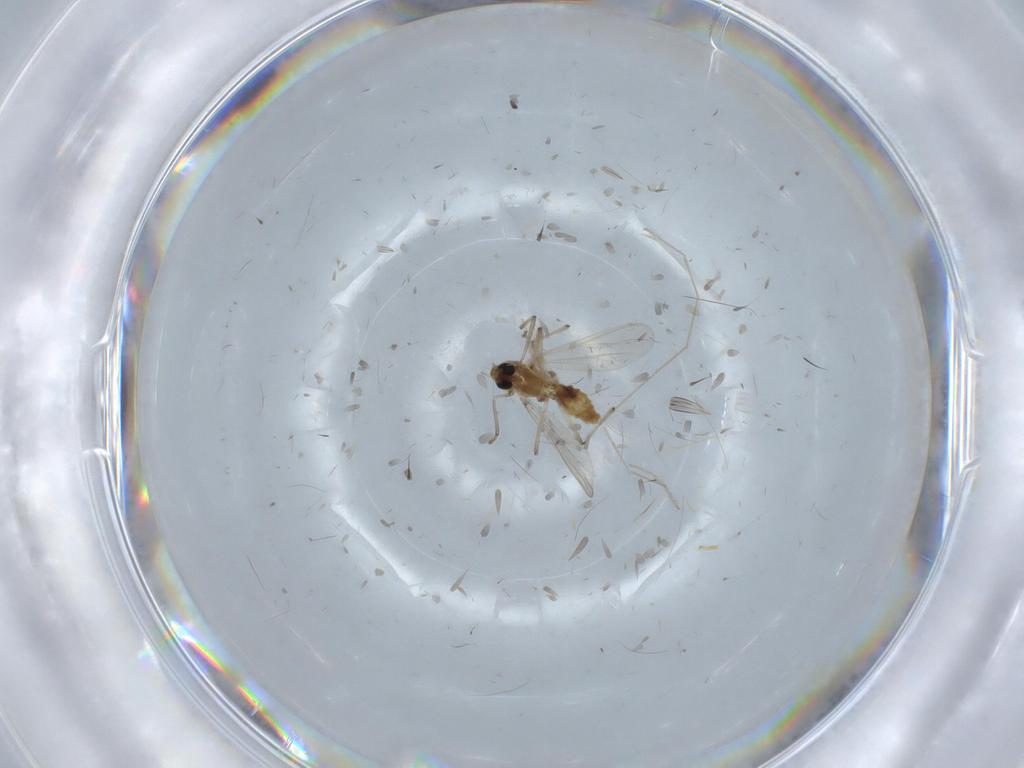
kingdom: Animalia
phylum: Arthropoda
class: Insecta
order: Diptera
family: Chironomidae
